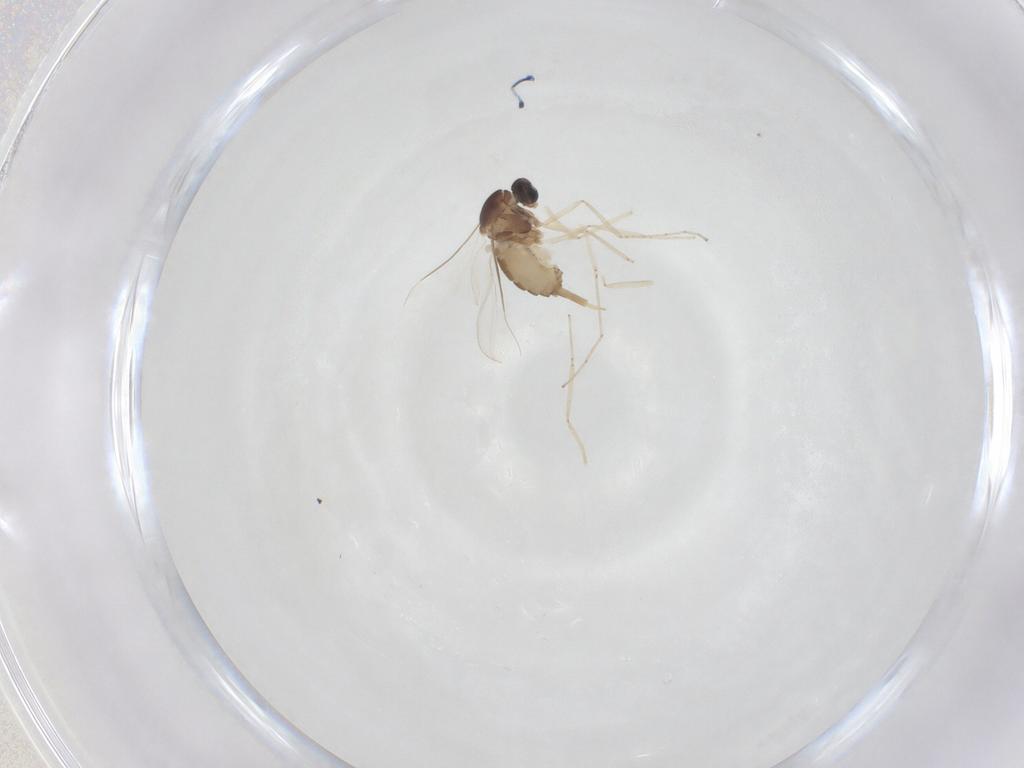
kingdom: Animalia
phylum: Arthropoda
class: Insecta
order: Diptera
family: Cecidomyiidae
